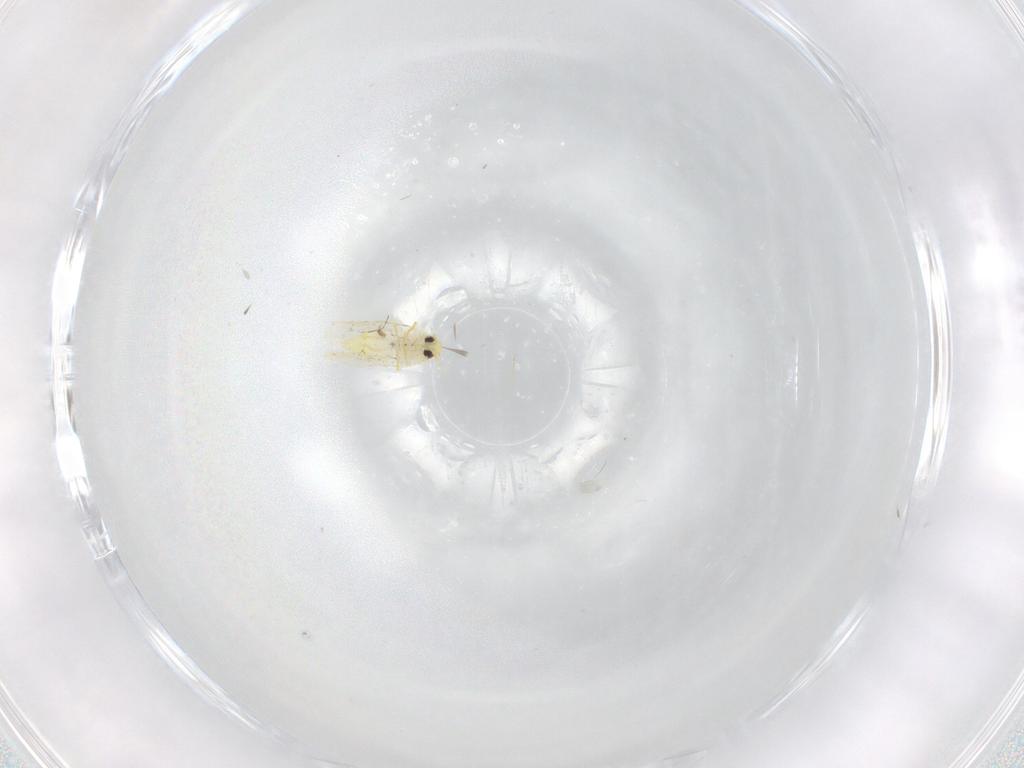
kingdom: Animalia
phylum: Arthropoda
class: Insecta
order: Hemiptera
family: Aleyrodidae
